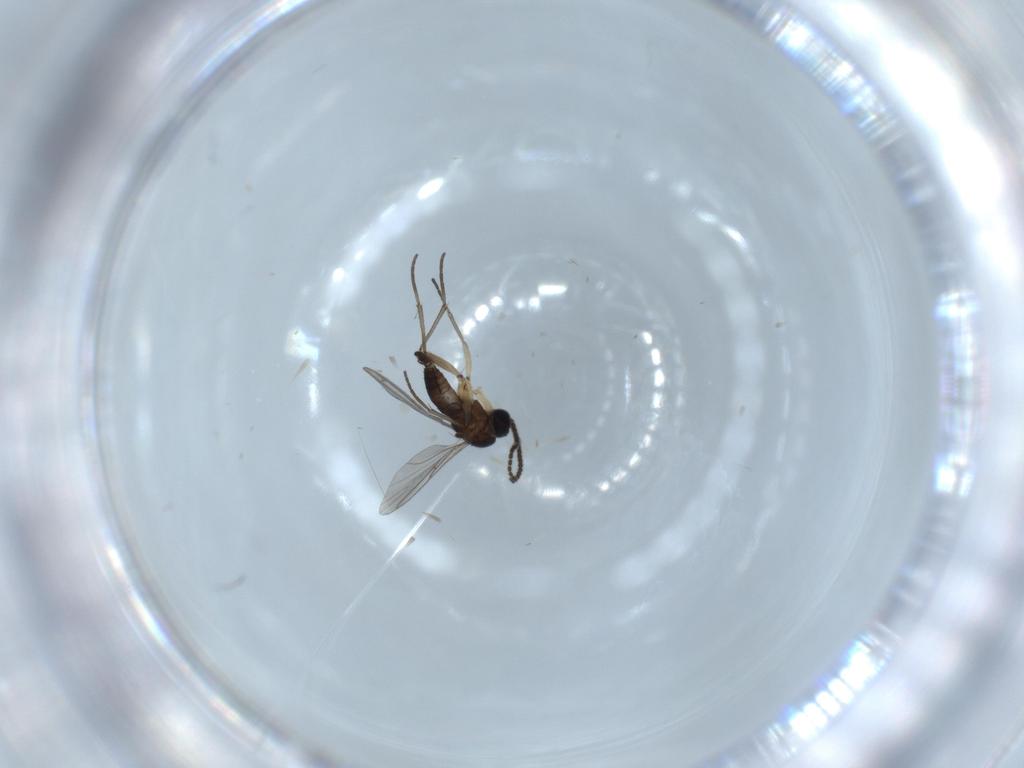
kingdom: Animalia
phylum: Arthropoda
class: Insecta
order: Diptera
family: Sciaridae
